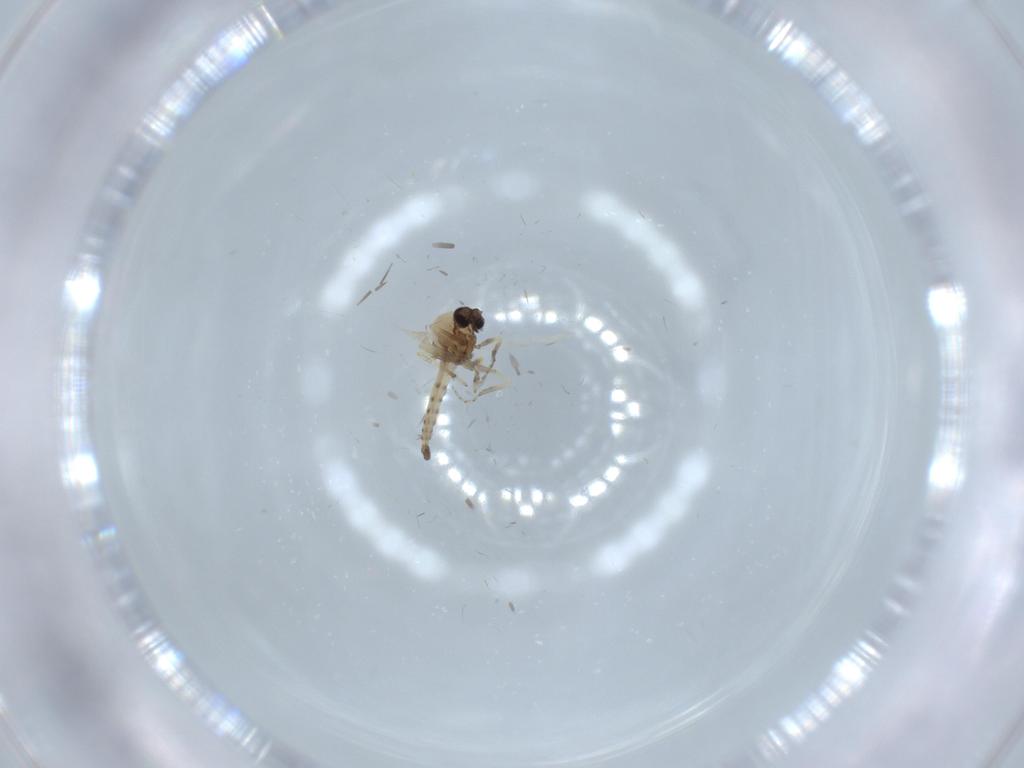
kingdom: Animalia
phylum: Arthropoda
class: Insecta
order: Diptera
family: Ceratopogonidae
